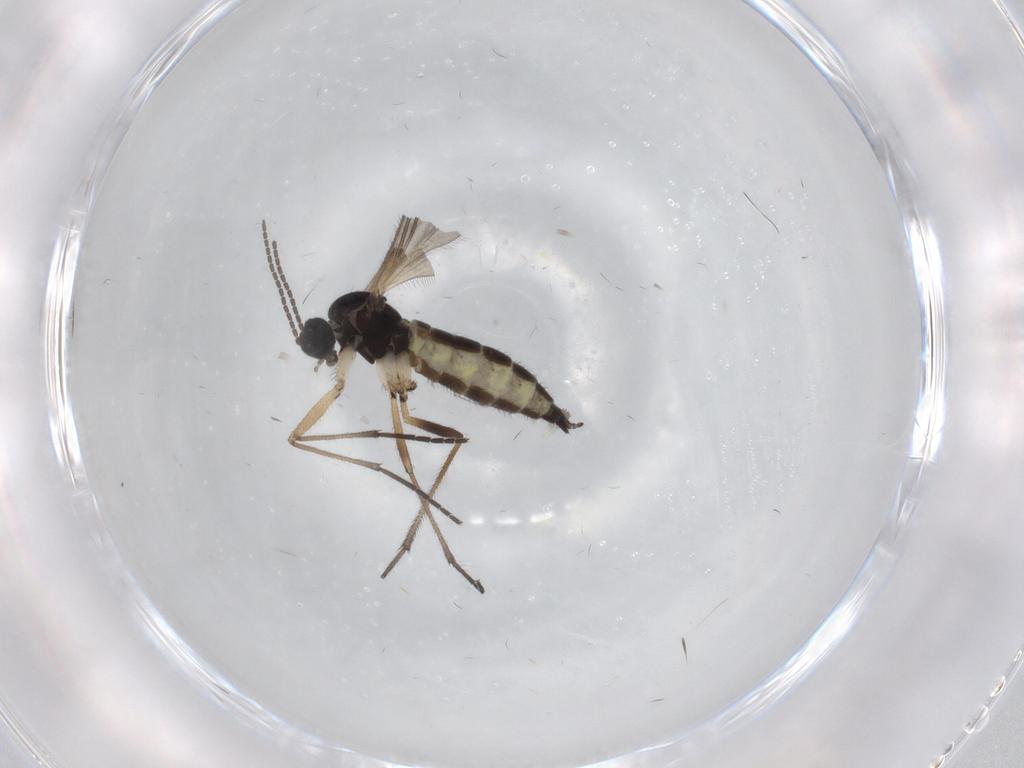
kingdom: Animalia
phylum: Arthropoda
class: Insecta
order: Diptera
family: Sciaridae
